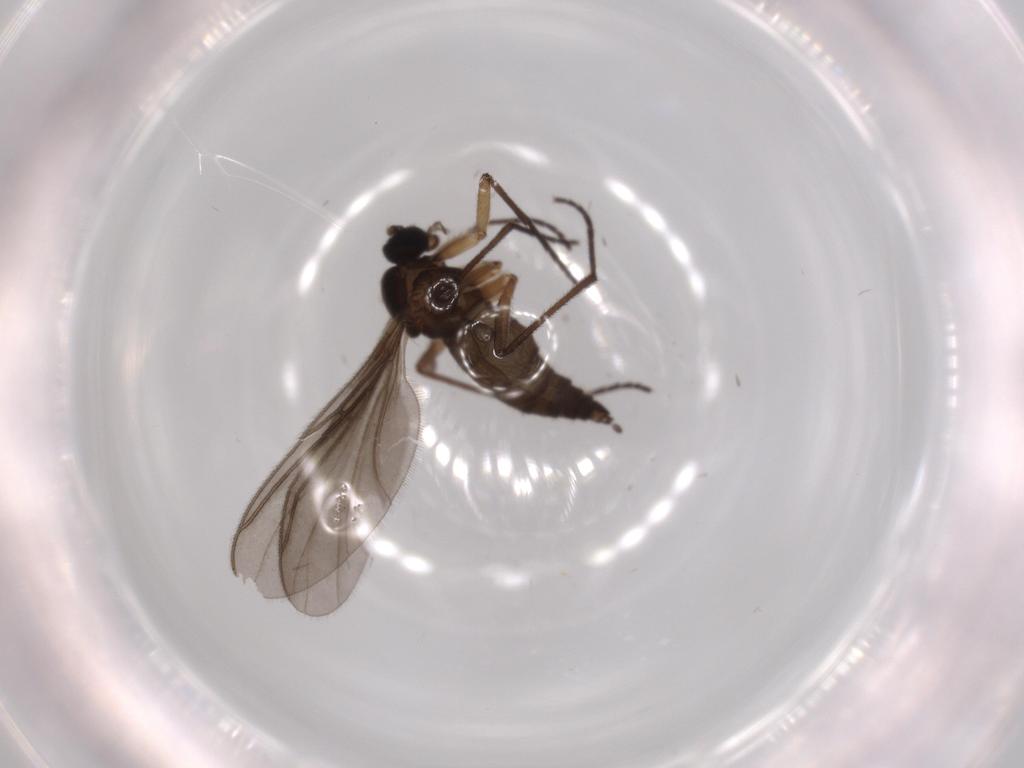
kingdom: Animalia
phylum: Arthropoda
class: Insecta
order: Diptera
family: Sciaridae
